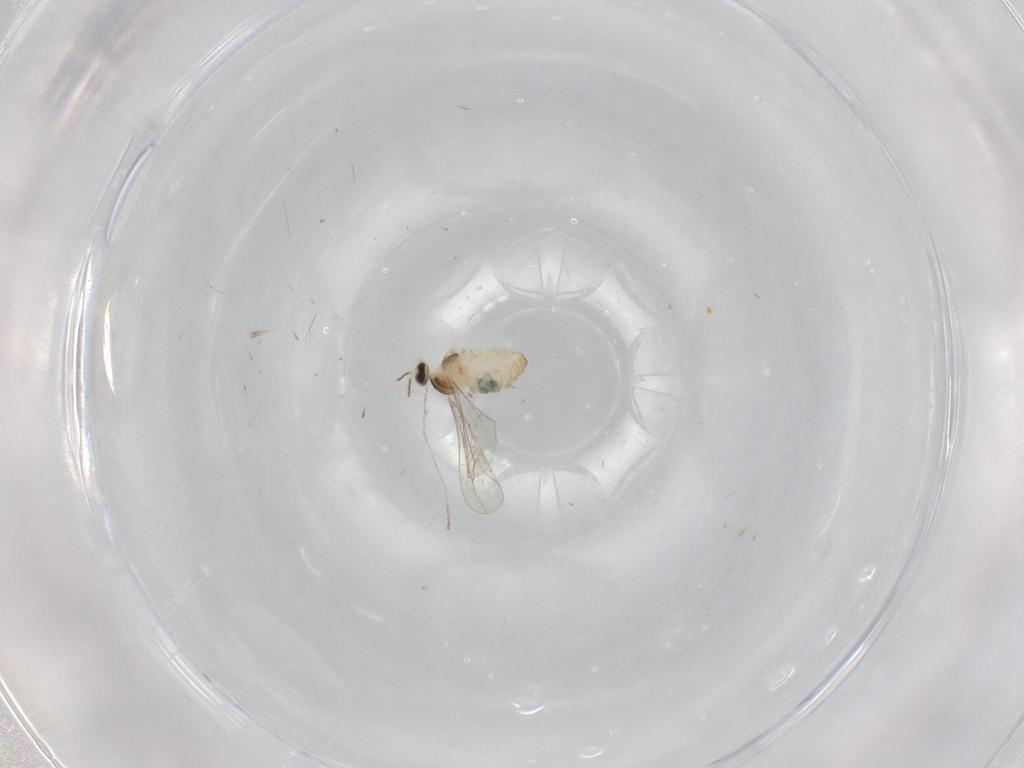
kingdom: Animalia
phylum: Arthropoda
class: Insecta
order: Diptera
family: Cecidomyiidae
